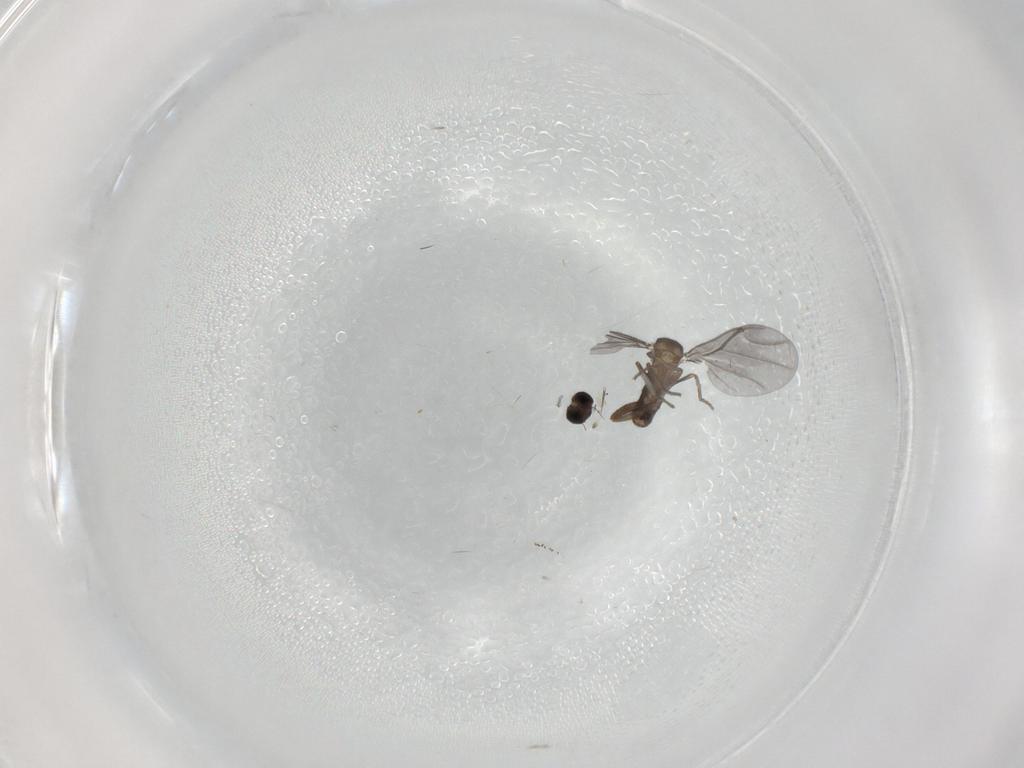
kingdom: Animalia
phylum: Arthropoda
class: Insecta
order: Diptera
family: Phoridae
